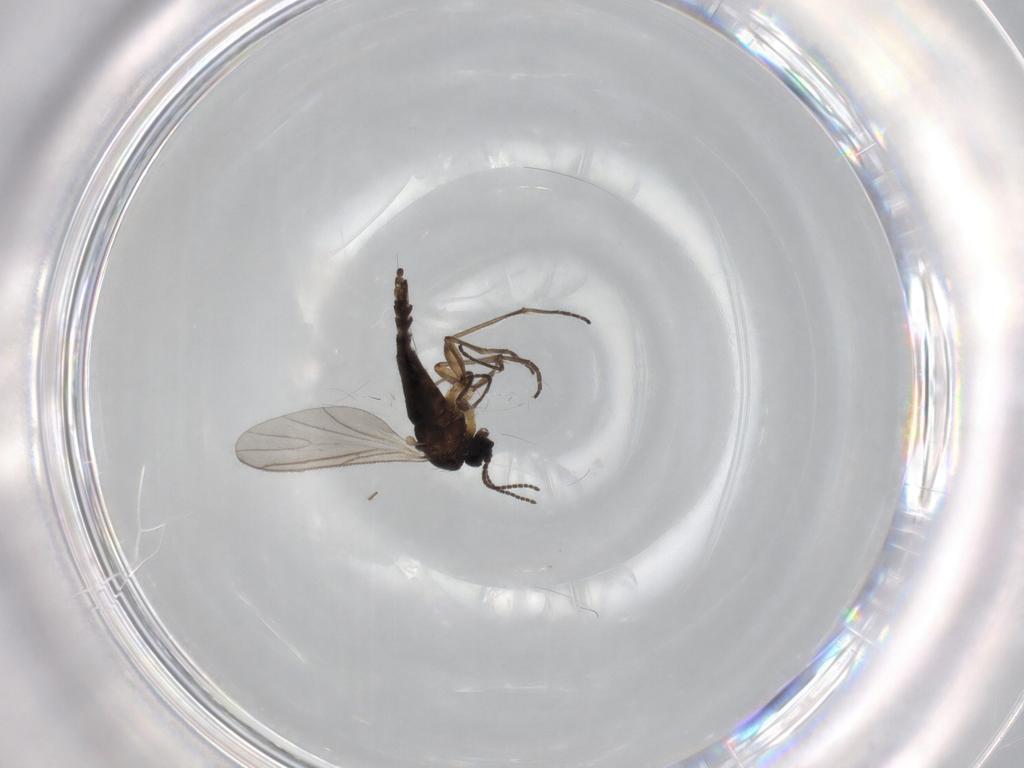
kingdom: Animalia
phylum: Arthropoda
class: Insecta
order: Diptera
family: Sciaridae
